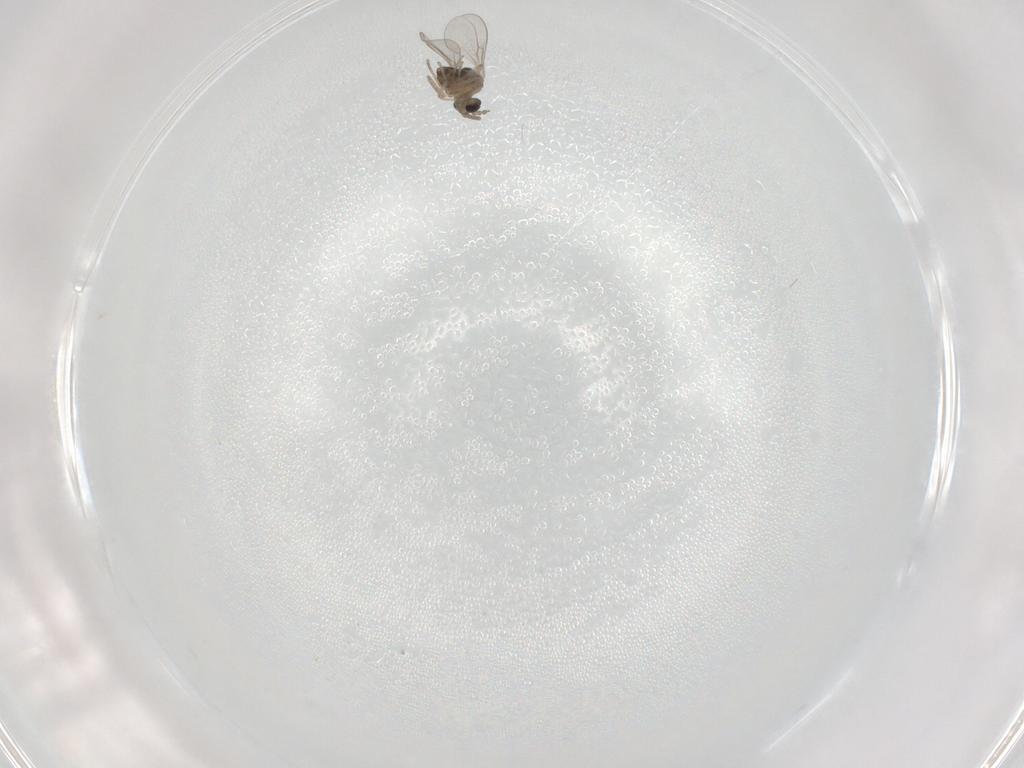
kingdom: Animalia
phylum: Arthropoda
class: Insecta
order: Diptera
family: Cecidomyiidae
